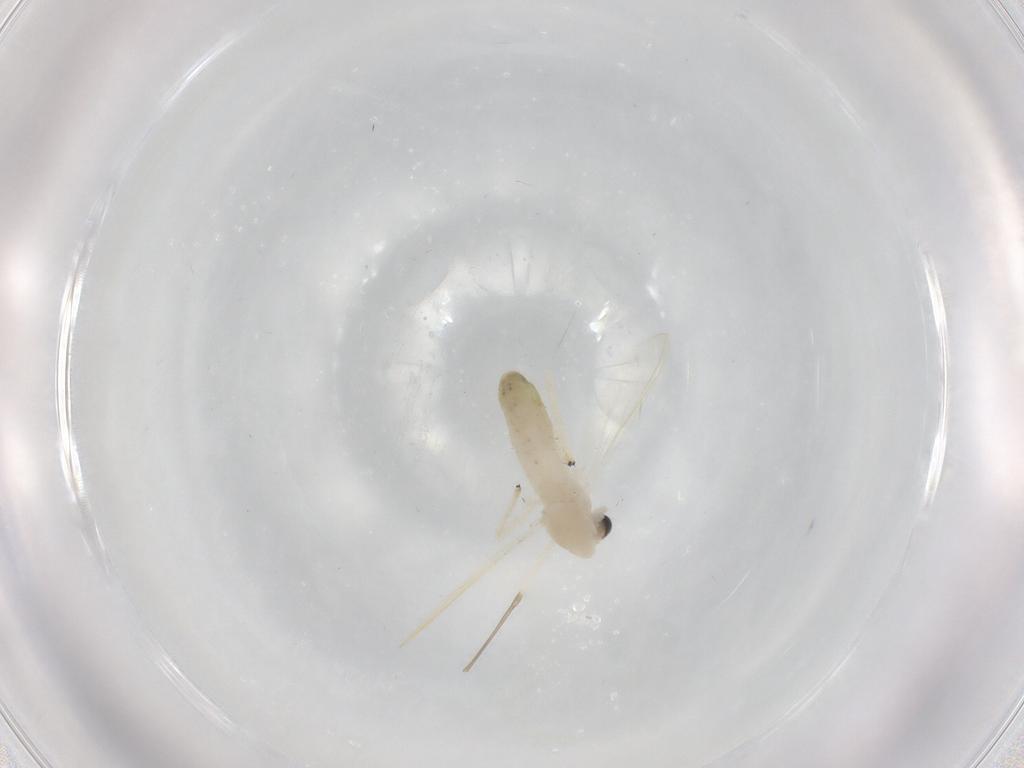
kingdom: Animalia
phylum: Arthropoda
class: Insecta
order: Diptera
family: Chironomidae
